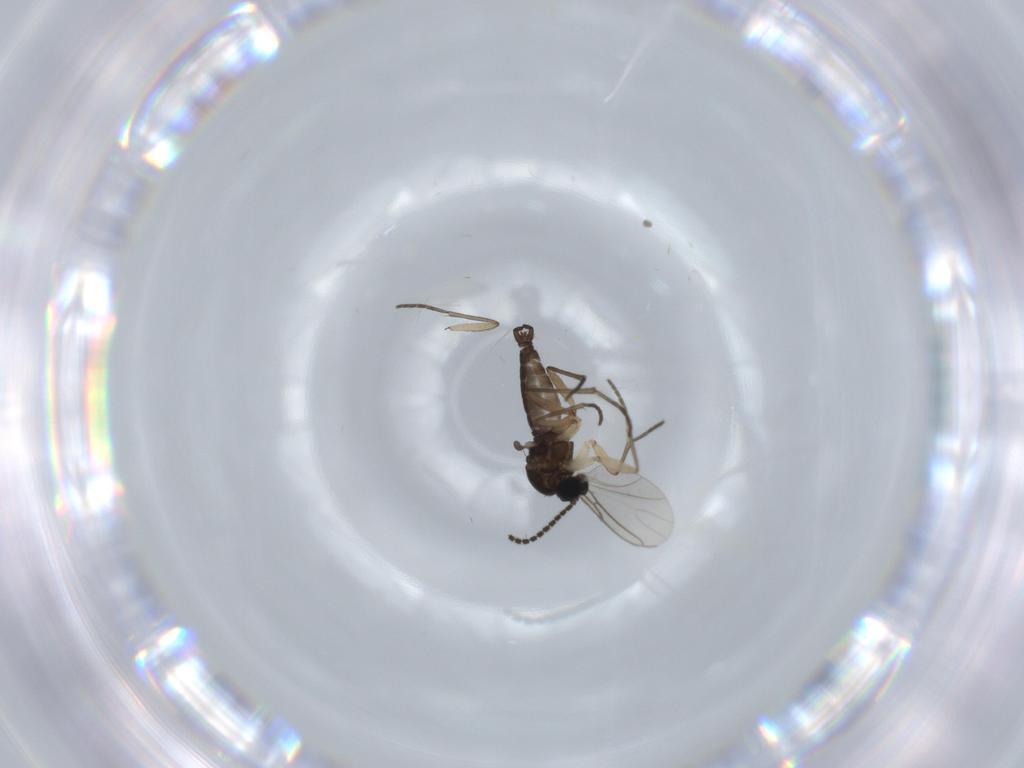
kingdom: Animalia
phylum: Arthropoda
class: Insecta
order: Diptera
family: Sciaridae
